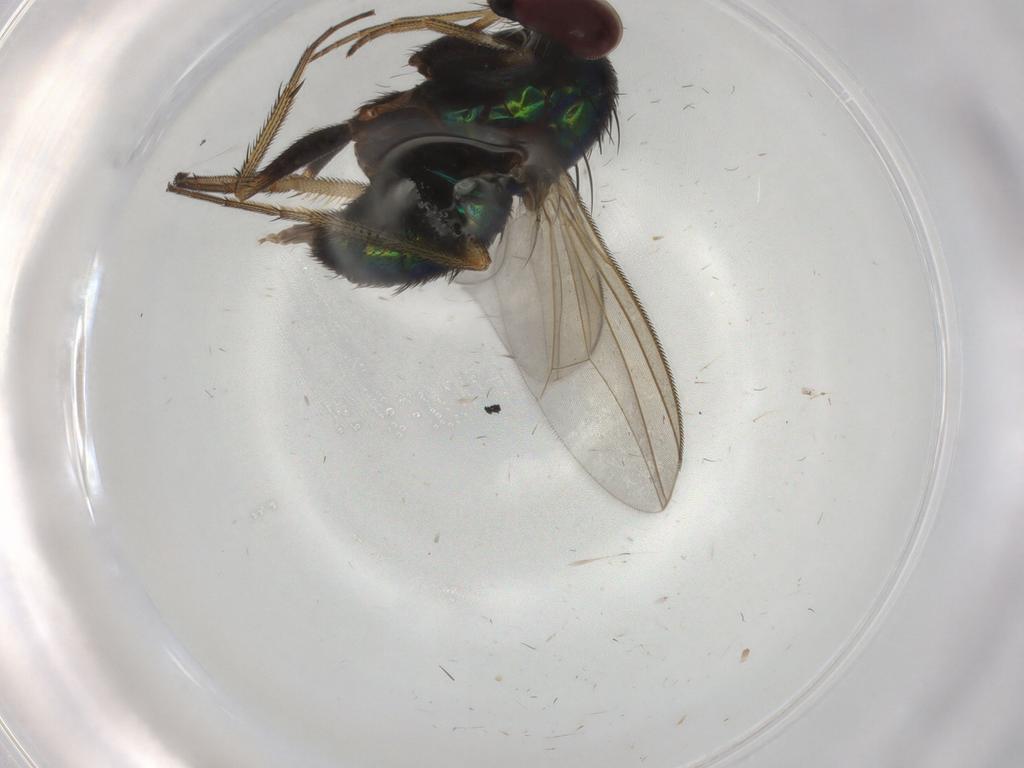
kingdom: Animalia
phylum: Arthropoda
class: Insecta
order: Diptera
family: Dolichopodidae
